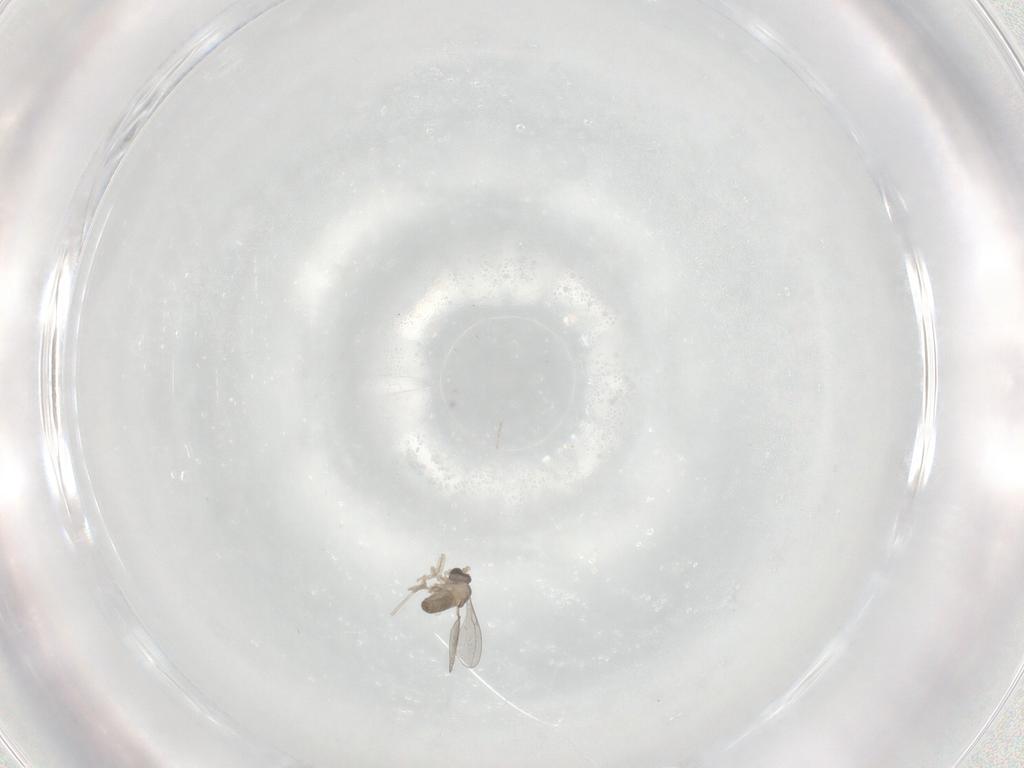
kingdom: Animalia
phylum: Arthropoda
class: Insecta
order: Diptera
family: Cecidomyiidae
